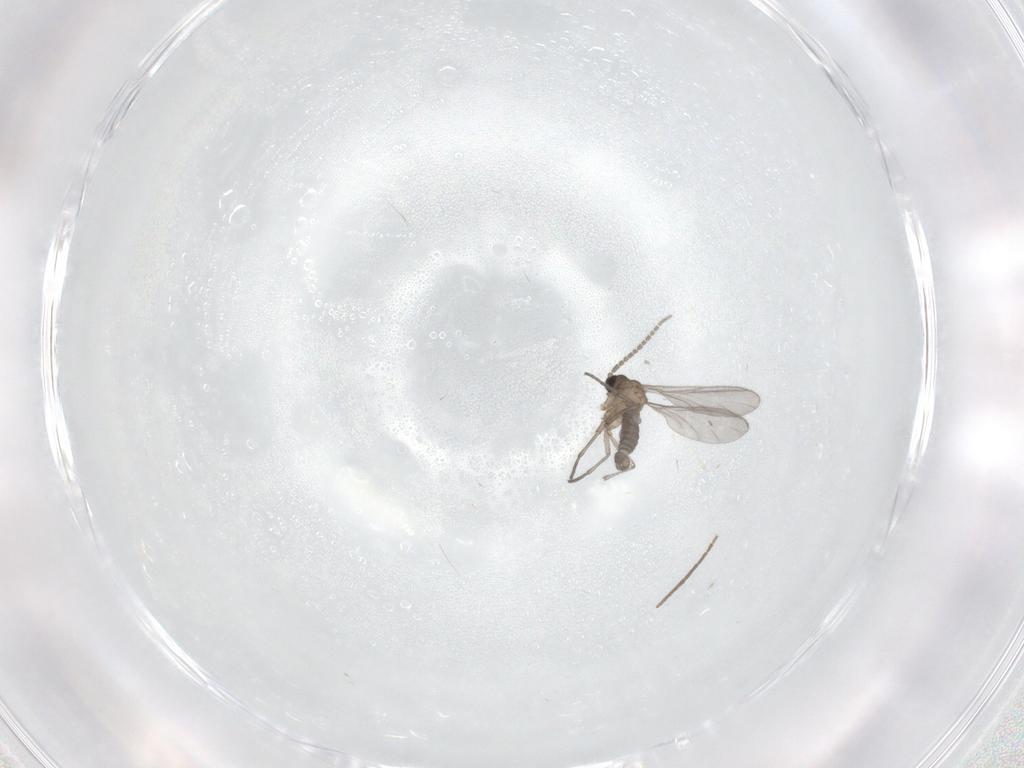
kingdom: Animalia
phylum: Arthropoda
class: Insecta
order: Diptera
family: Sciaridae
